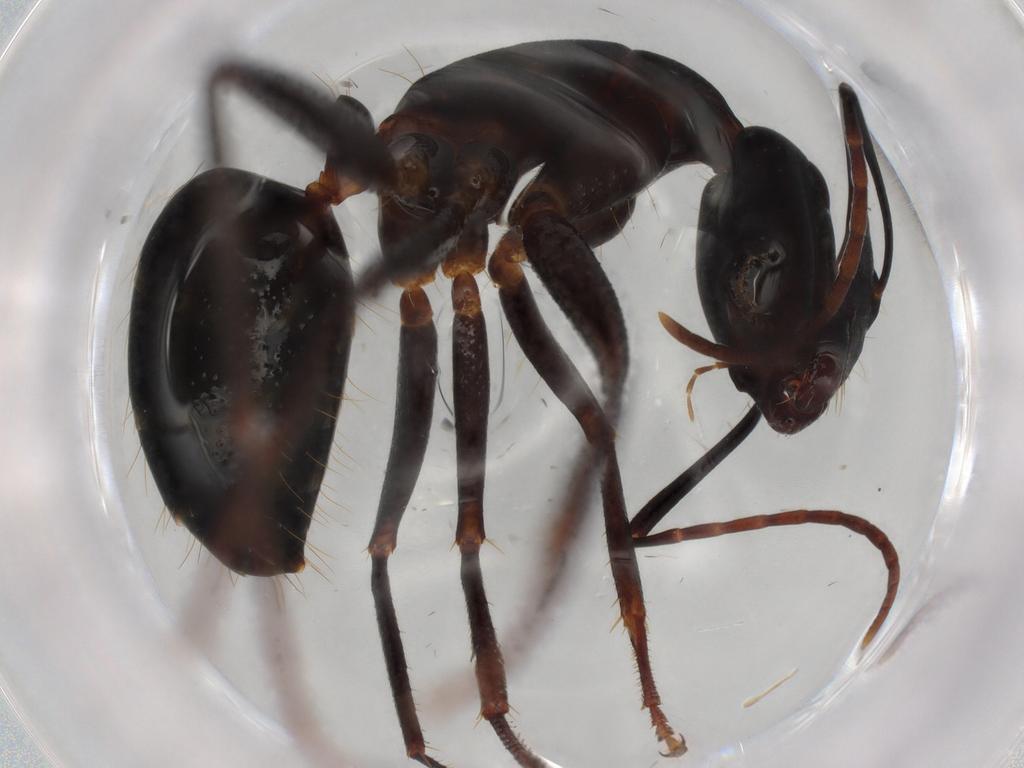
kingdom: Animalia
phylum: Arthropoda
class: Insecta
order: Hymenoptera
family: Formicidae
